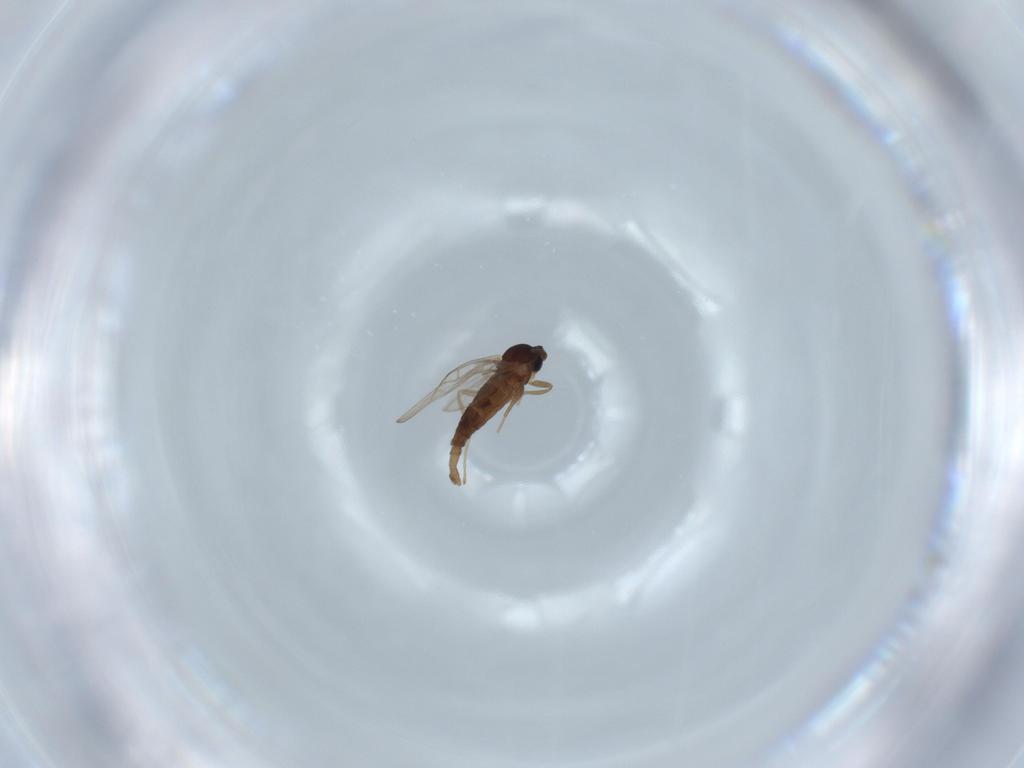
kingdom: Animalia
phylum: Arthropoda
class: Insecta
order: Diptera
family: Cecidomyiidae
